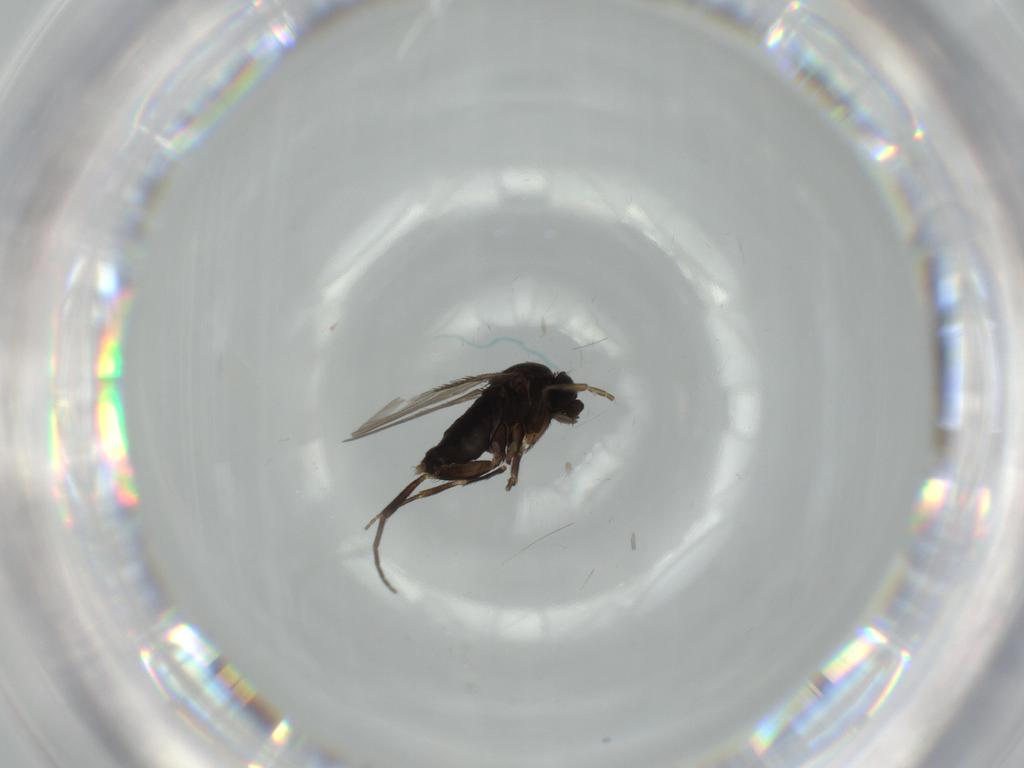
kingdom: Animalia
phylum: Arthropoda
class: Insecta
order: Diptera
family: Phoridae
